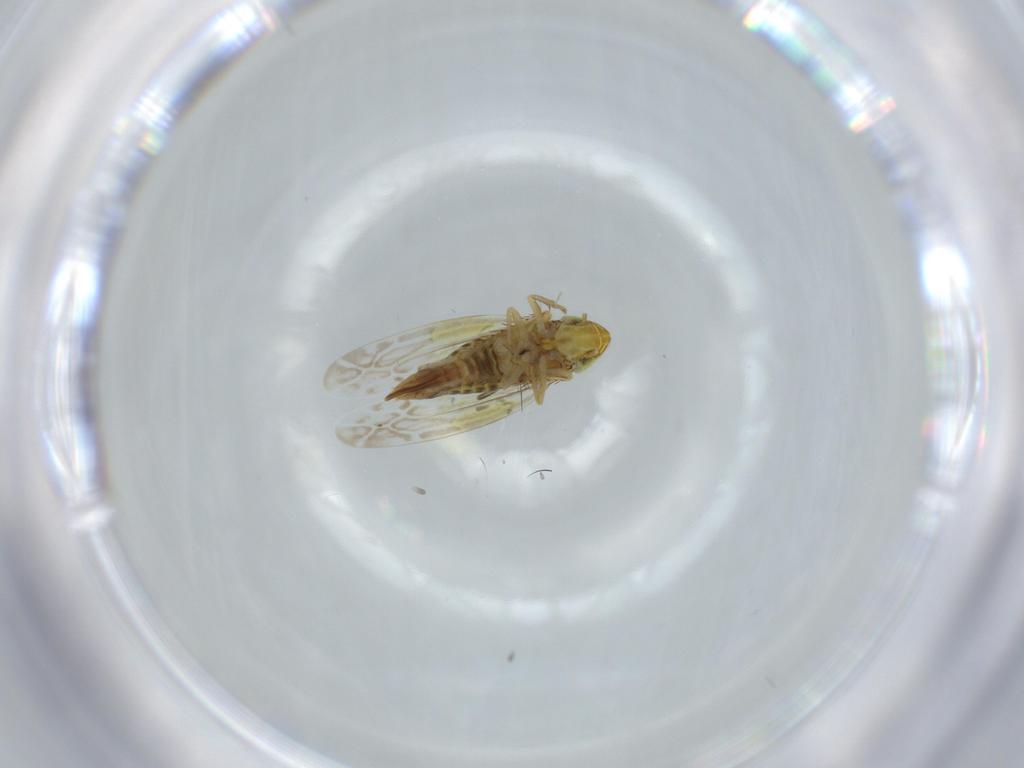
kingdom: Animalia
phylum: Arthropoda
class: Insecta
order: Hemiptera
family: Cicadellidae
